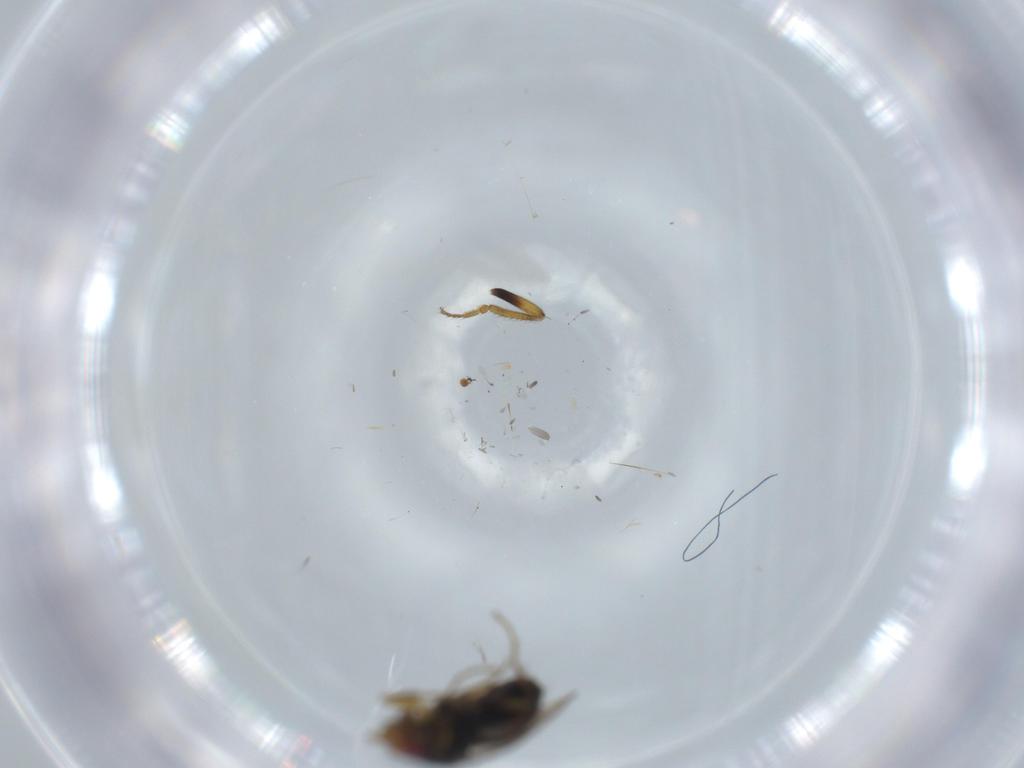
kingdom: Animalia
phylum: Arthropoda
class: Insecta
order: Diptera
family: Sphaeroceridae
